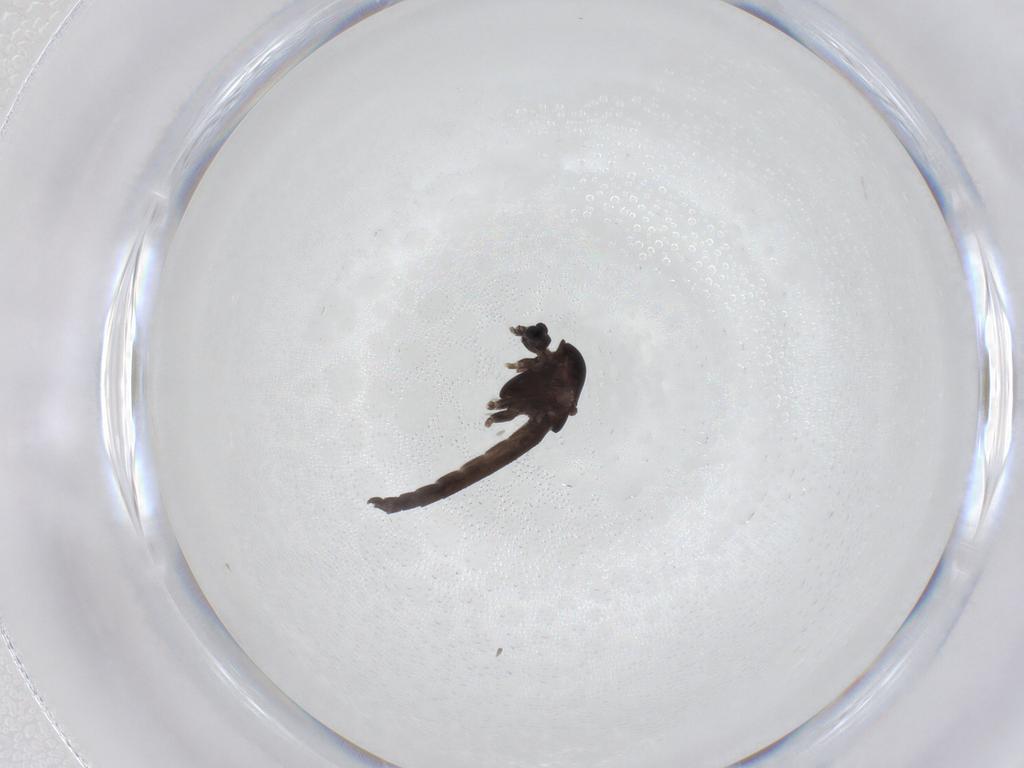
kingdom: Animalia
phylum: Arthropoda
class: Insecta
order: Diptera
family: Chironomidae
